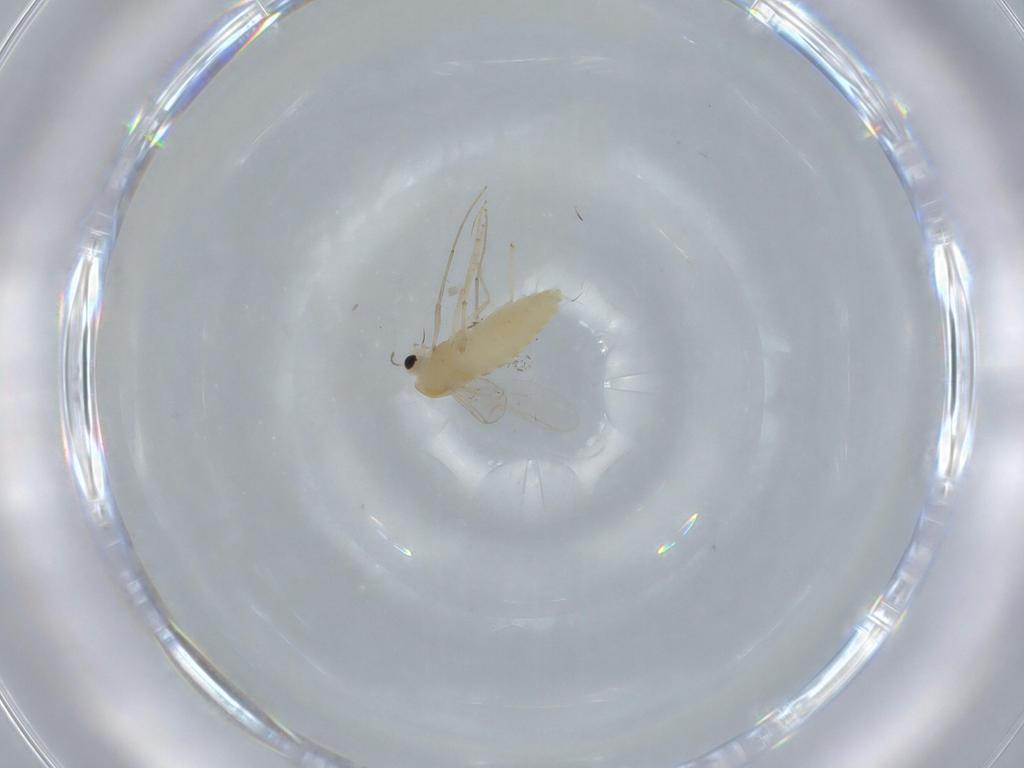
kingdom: Animalia
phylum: Arthropoda
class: Insecta
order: Diptera
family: Chironomidae
